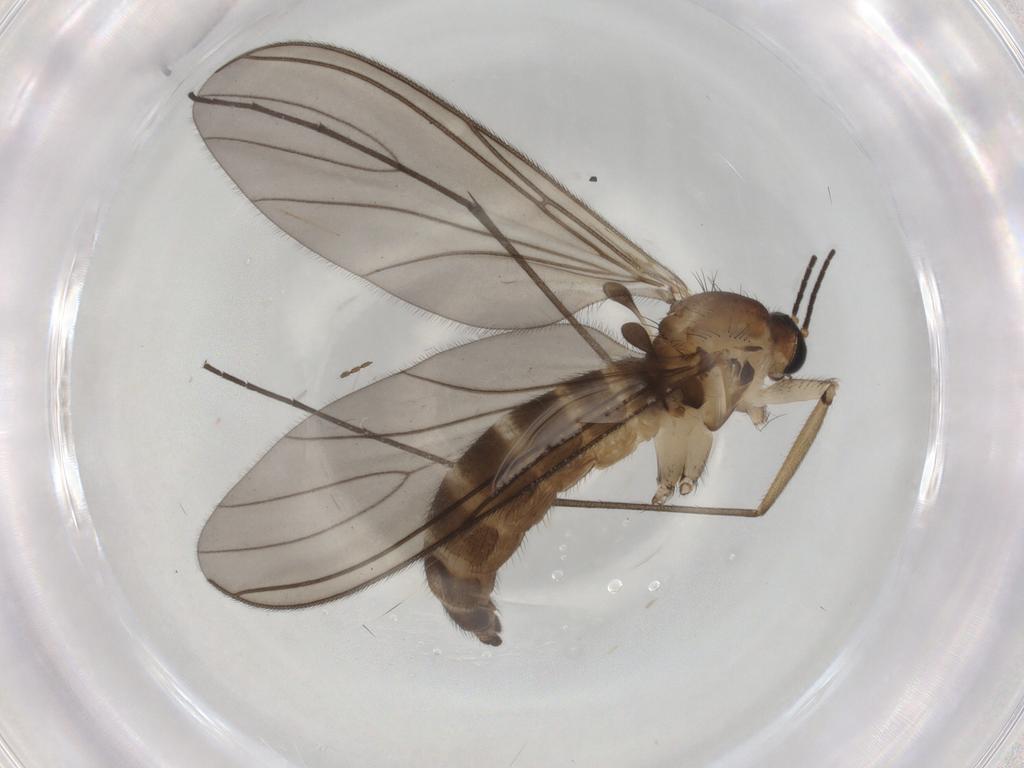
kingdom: Animalia
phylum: Arthropoda
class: Insecta
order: Diptera
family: Sciaridae
